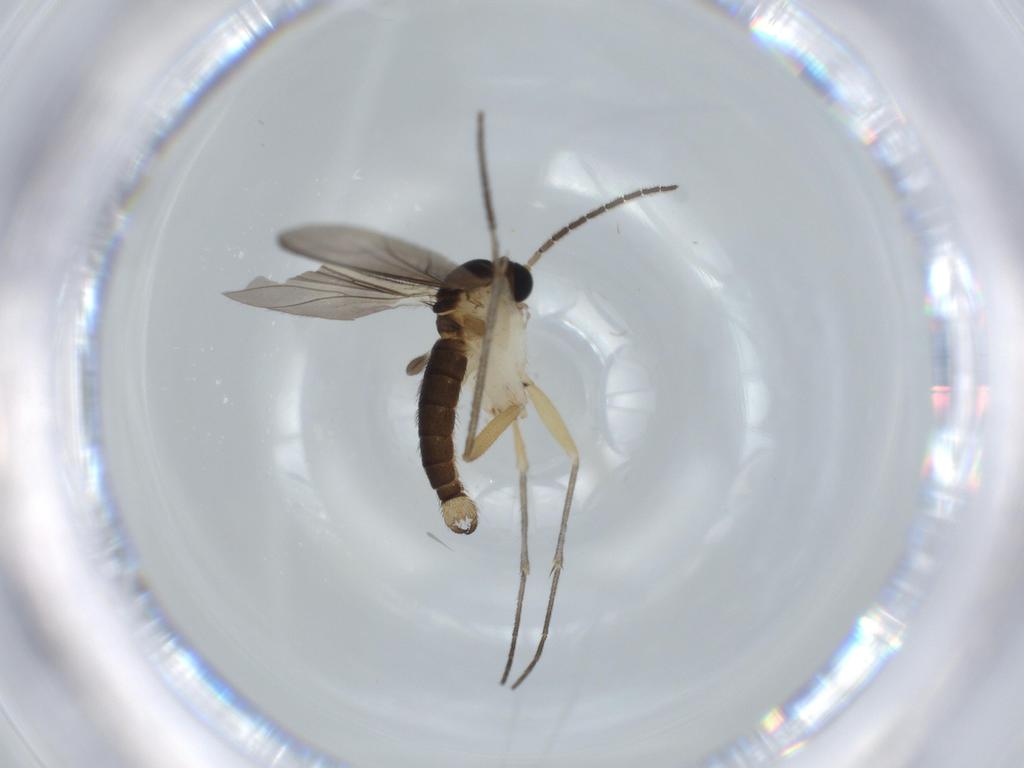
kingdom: Animalia
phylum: Arthropoda
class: Insecta
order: Diptera
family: Sciaridae
